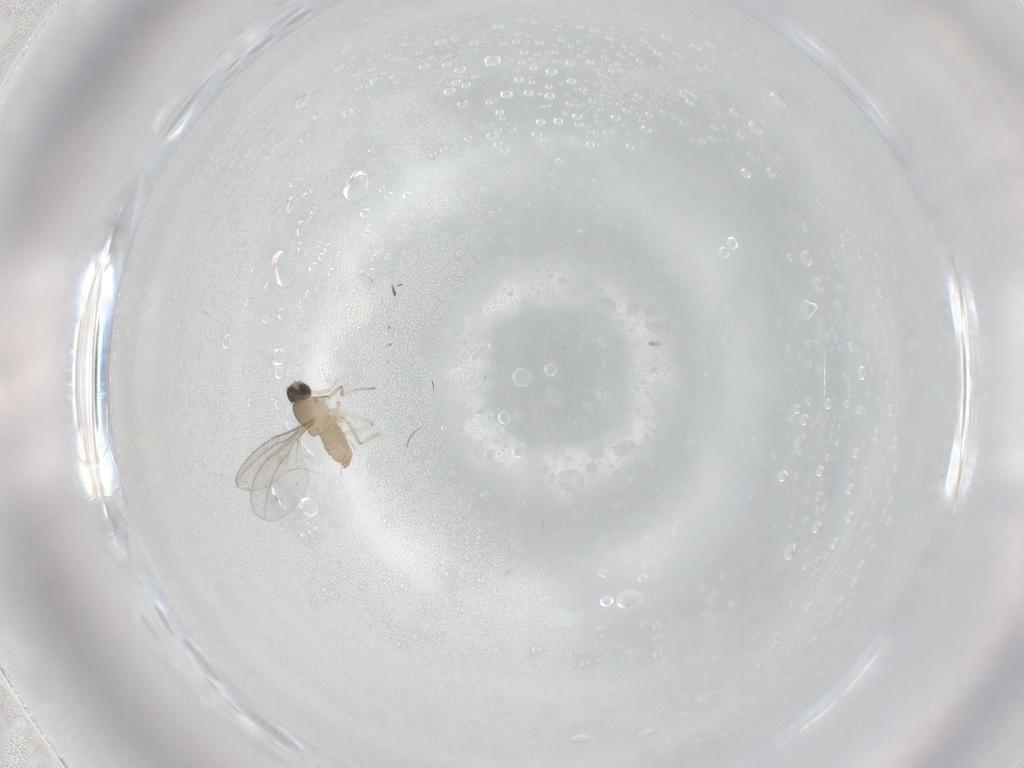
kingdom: Animalia
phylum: Arthropoda
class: Insecta
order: Diptera
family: Cecidomyiidae
